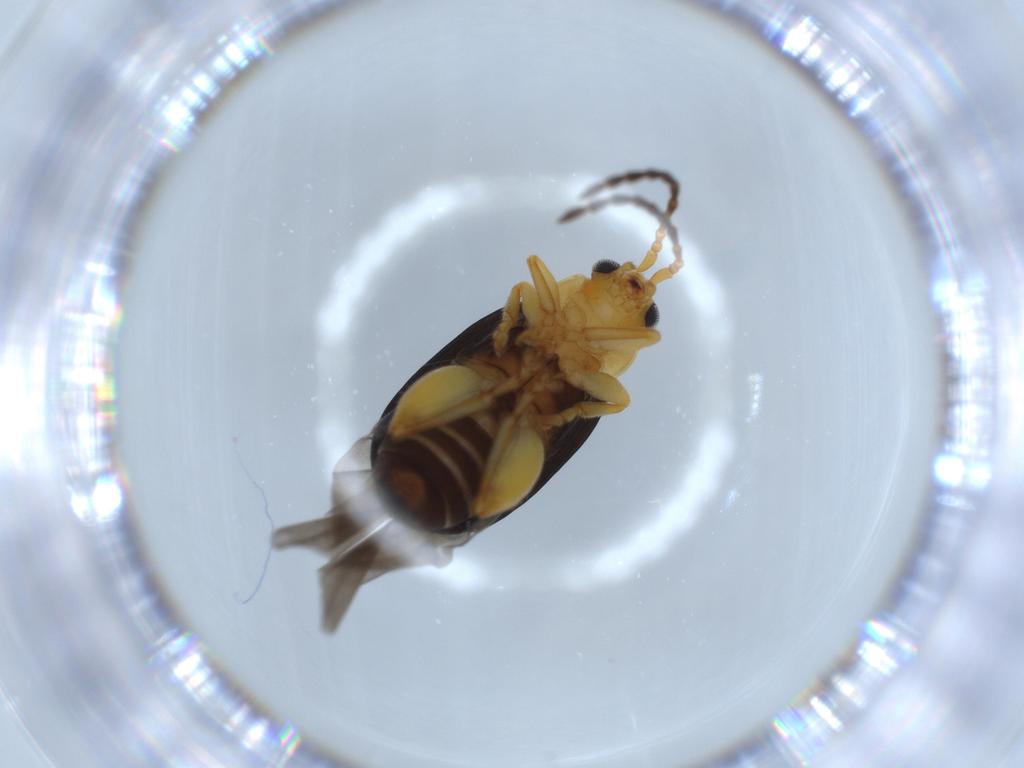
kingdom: Animalia
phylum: Arthropoda
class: Insecta
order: Coleoptera
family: Chrysomelidae
